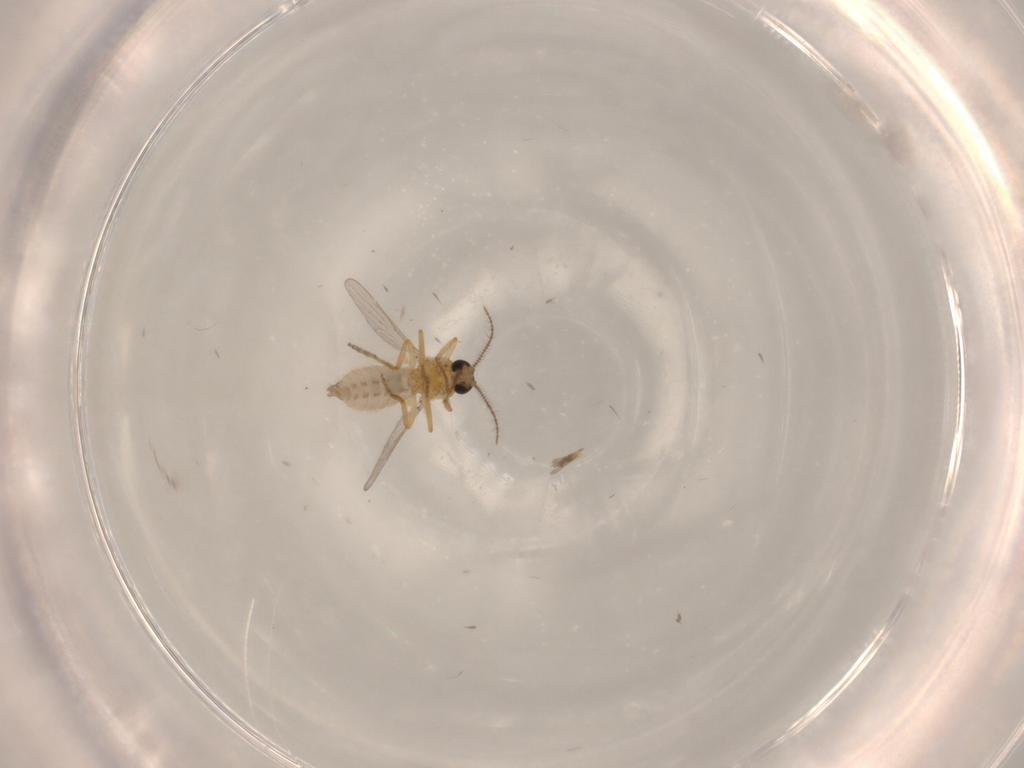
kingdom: Animalia
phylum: Arthropoda
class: Insecta
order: Diptera
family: Ceratopogonidae
